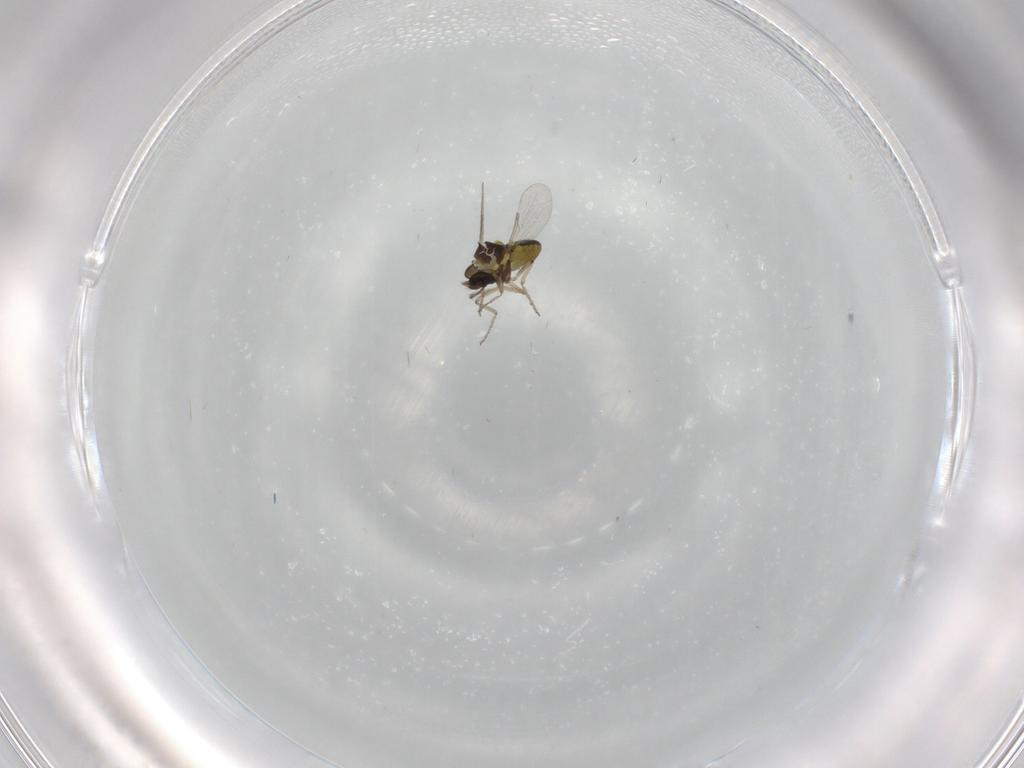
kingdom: Animalia
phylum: Arthropoda
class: Insecta
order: Diptera
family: Ceratopogonidae
